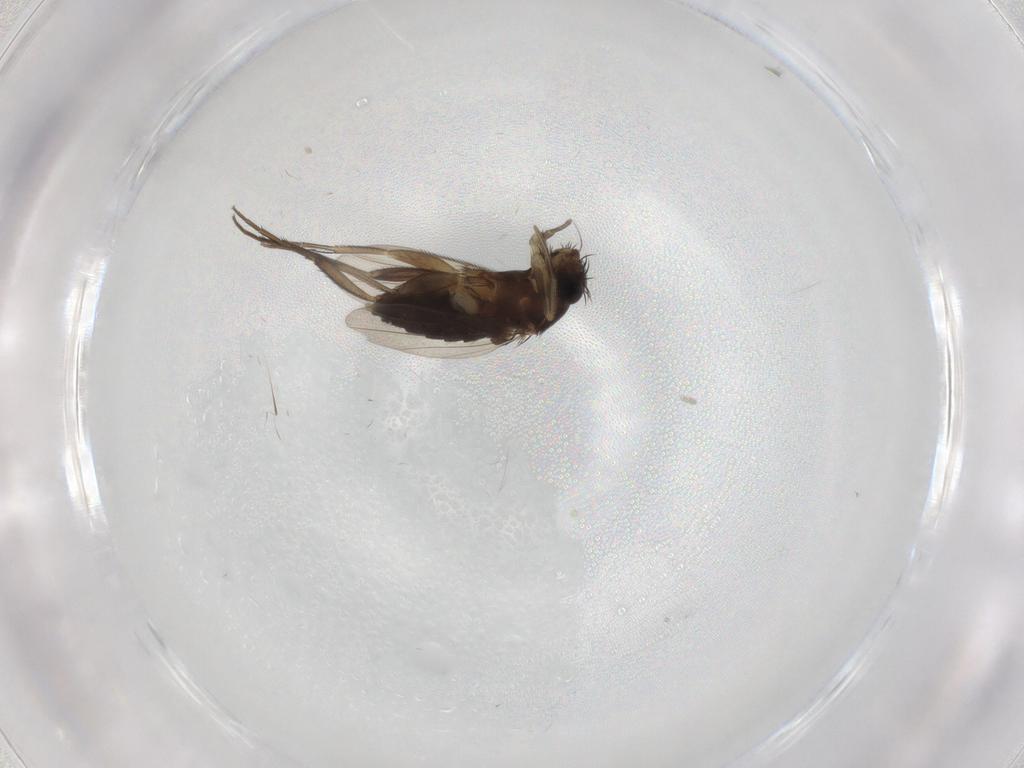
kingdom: Animalia
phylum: Arthropoda
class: Insecta
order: Diptera
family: Phoridae
